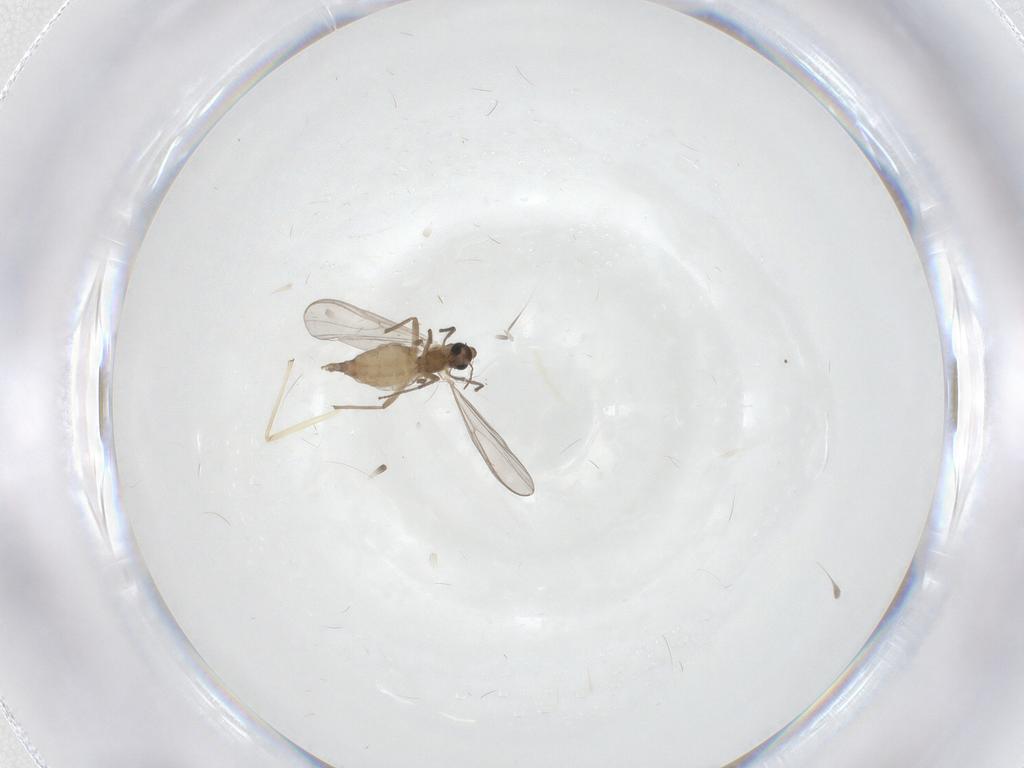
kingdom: Animalia
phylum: Arthropoda
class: Insecta
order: Diptera
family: Chironomidae
